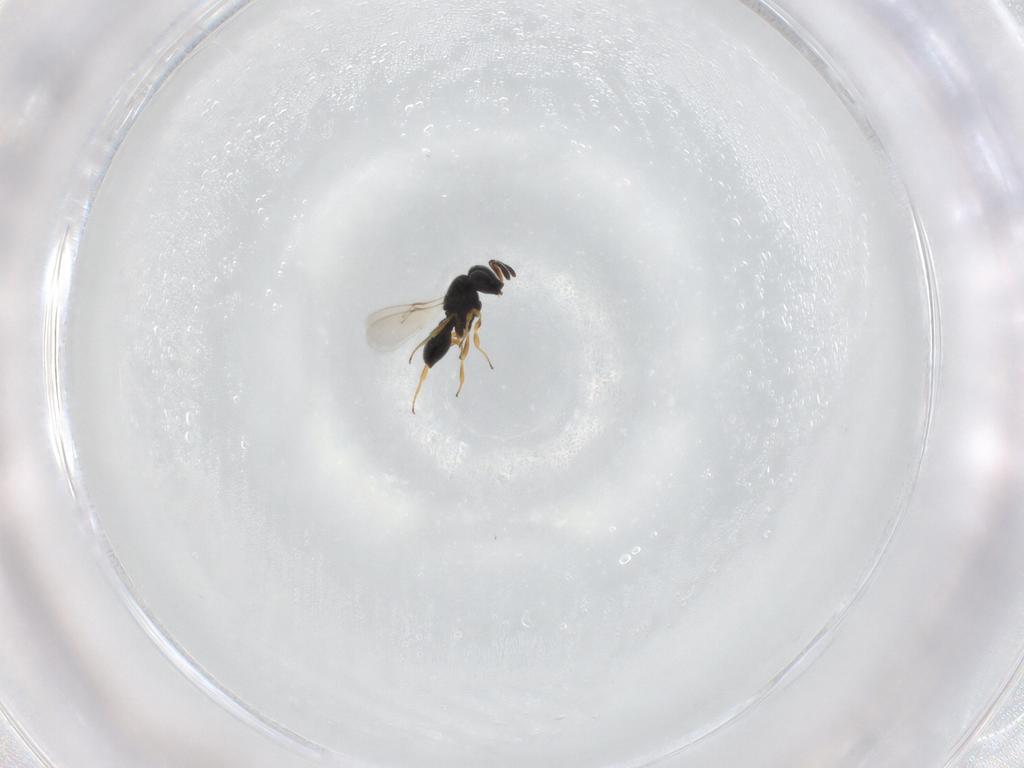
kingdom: Animalia
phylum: Arthropoda
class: Insecta
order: Hymenoptera
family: Scelionidae
